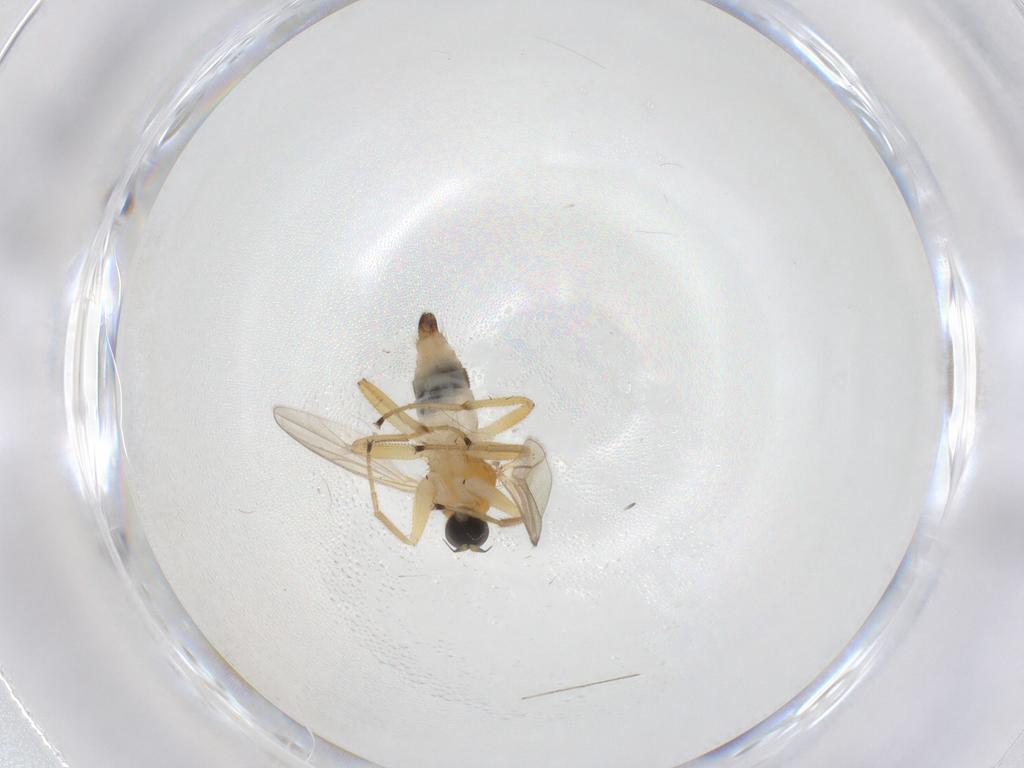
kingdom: Animalia
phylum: Arthropoda
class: Insecta
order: Diptera
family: Hybotidae
